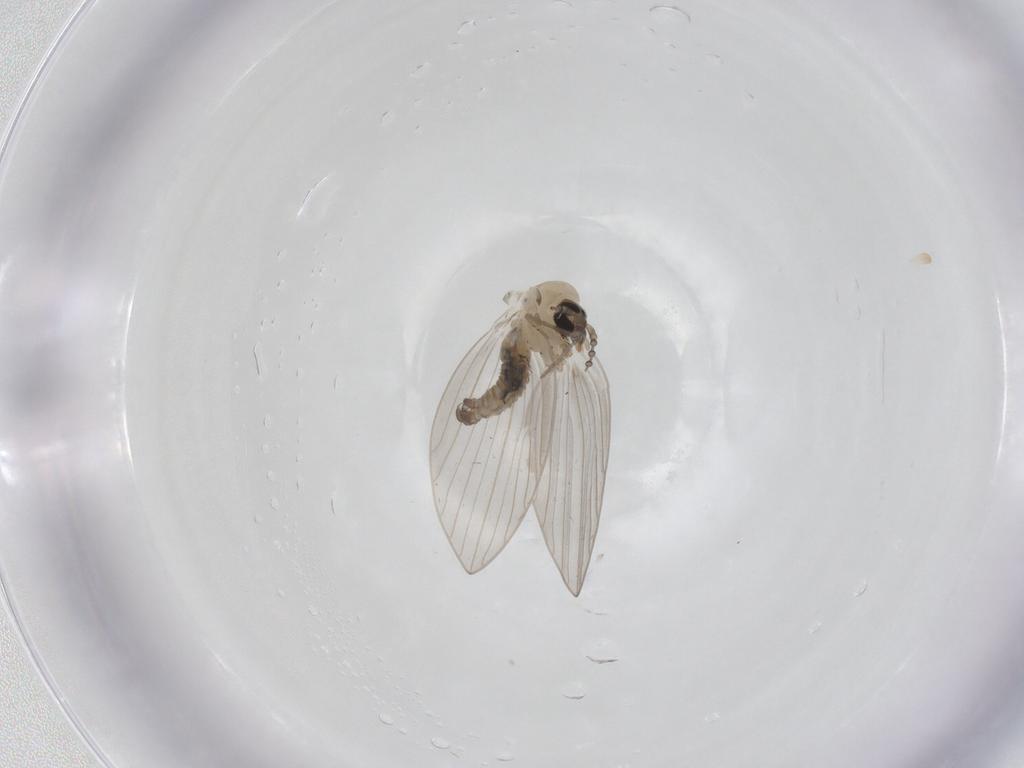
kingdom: Animalia
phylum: Arthropoda
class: Insecta
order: Diptera
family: Psychodidae
